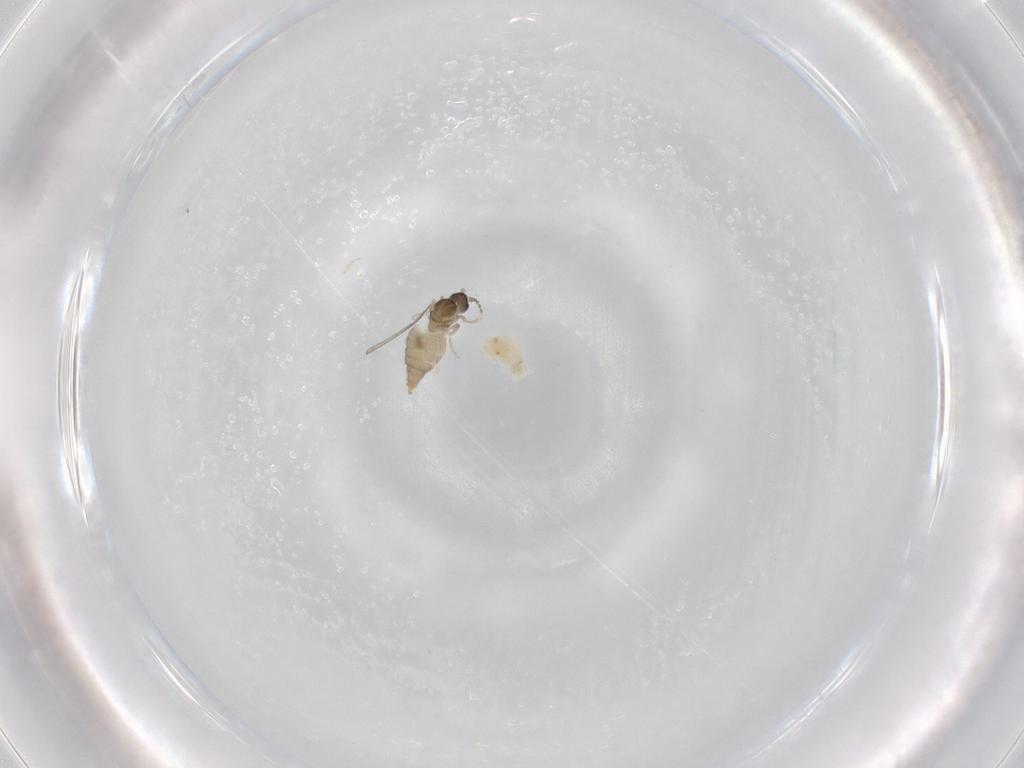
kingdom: Animalia
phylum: Arthropoda
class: Insecta
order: Diptera
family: Cecidomyiidae
